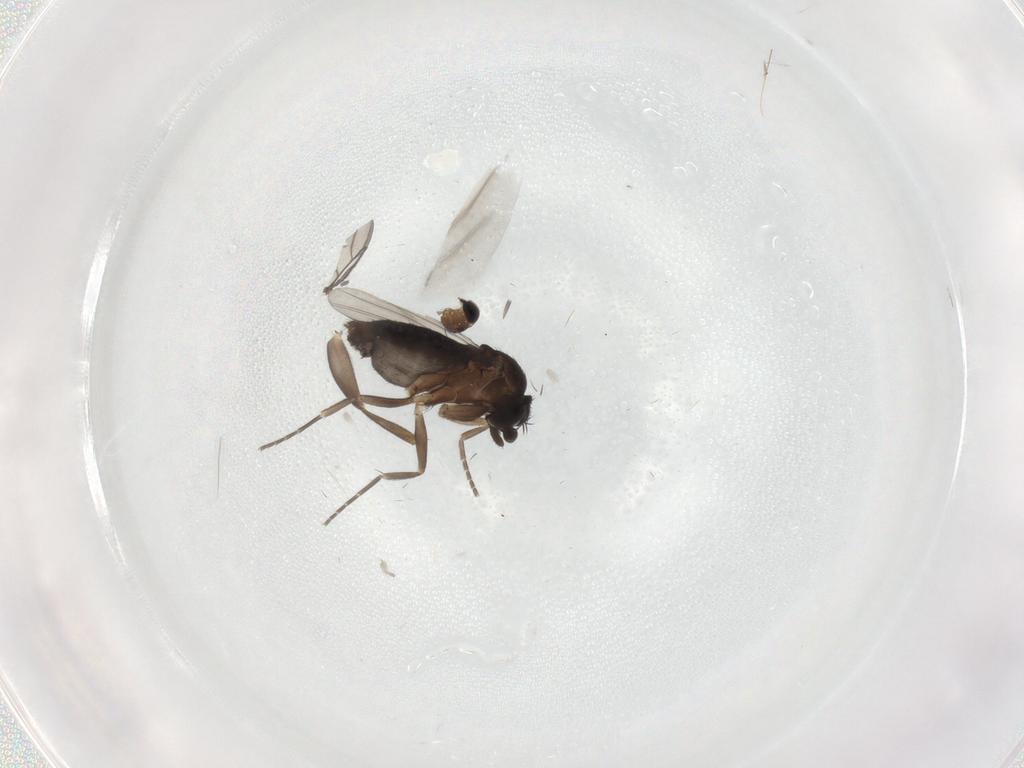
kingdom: Animalia
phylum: Arthropoda
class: Insecta
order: Diptera
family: Phoridae
